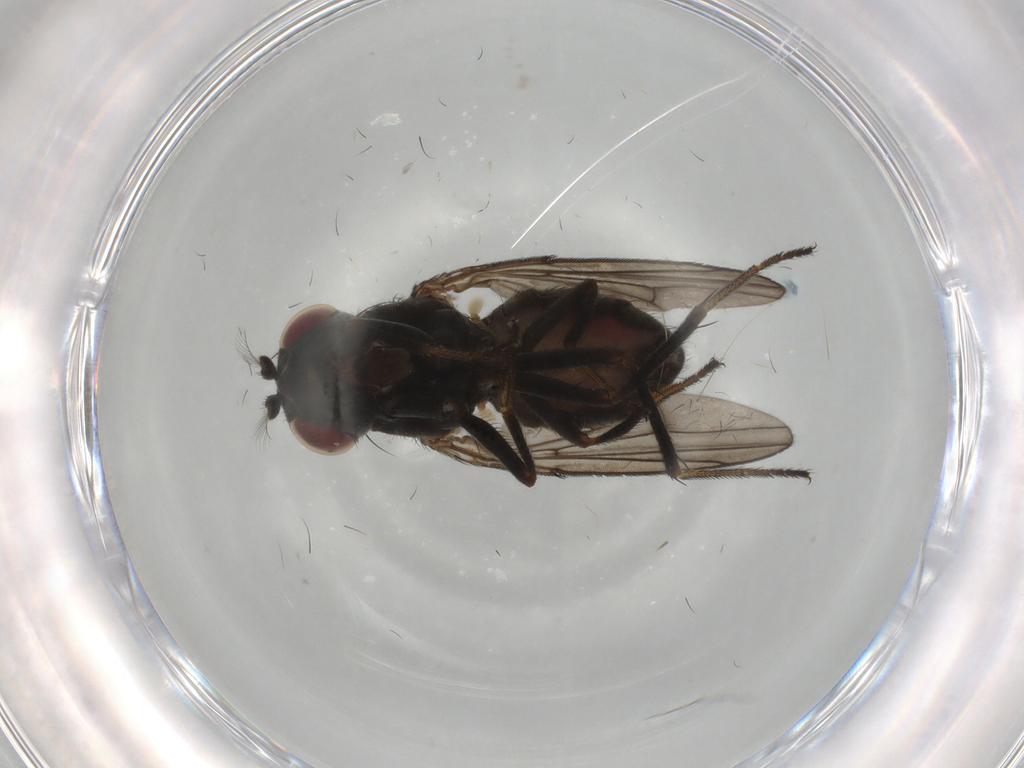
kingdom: Animalia
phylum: Arthropoda
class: Insecta
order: Diptera
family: Ephydridae
